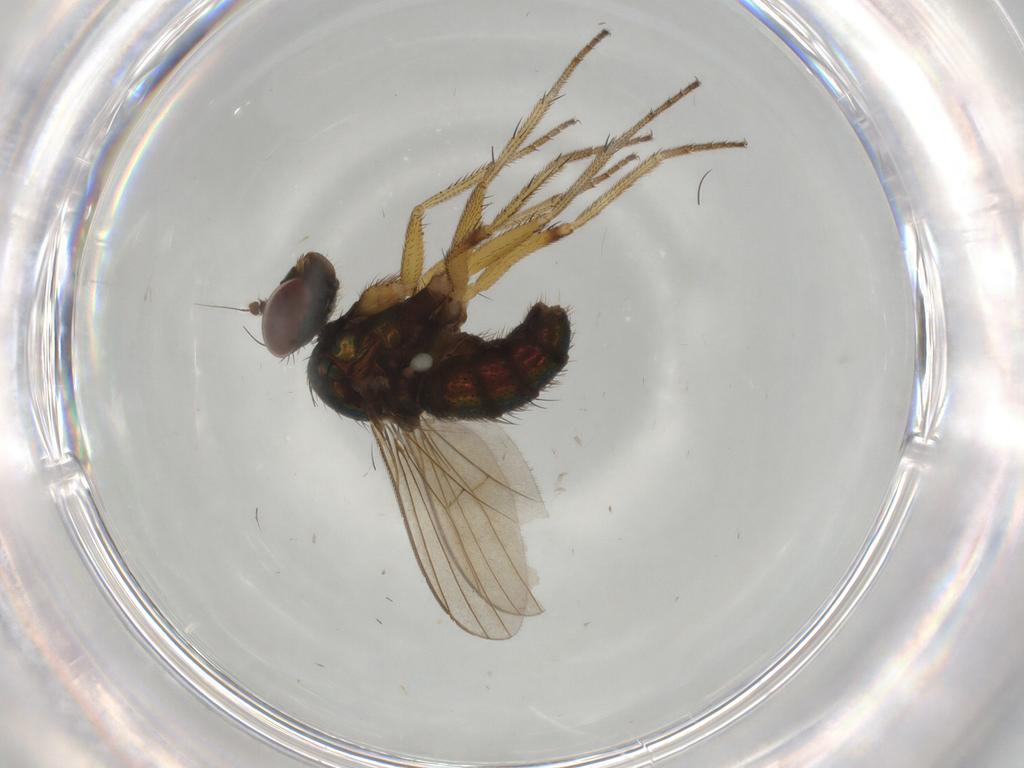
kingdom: Animalia
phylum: Arthropoda
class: Insecta
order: Diptera
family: Dolichopodidae
